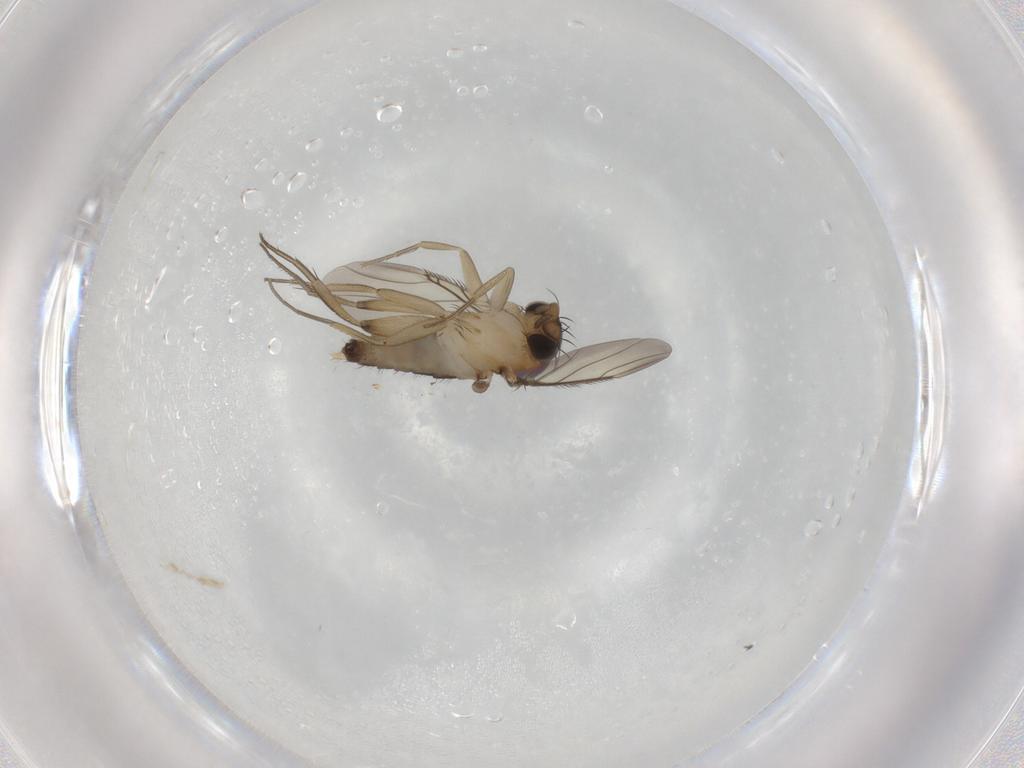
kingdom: Animalia
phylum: Arthropoda
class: Insecta
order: Diptera
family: Phoridae
